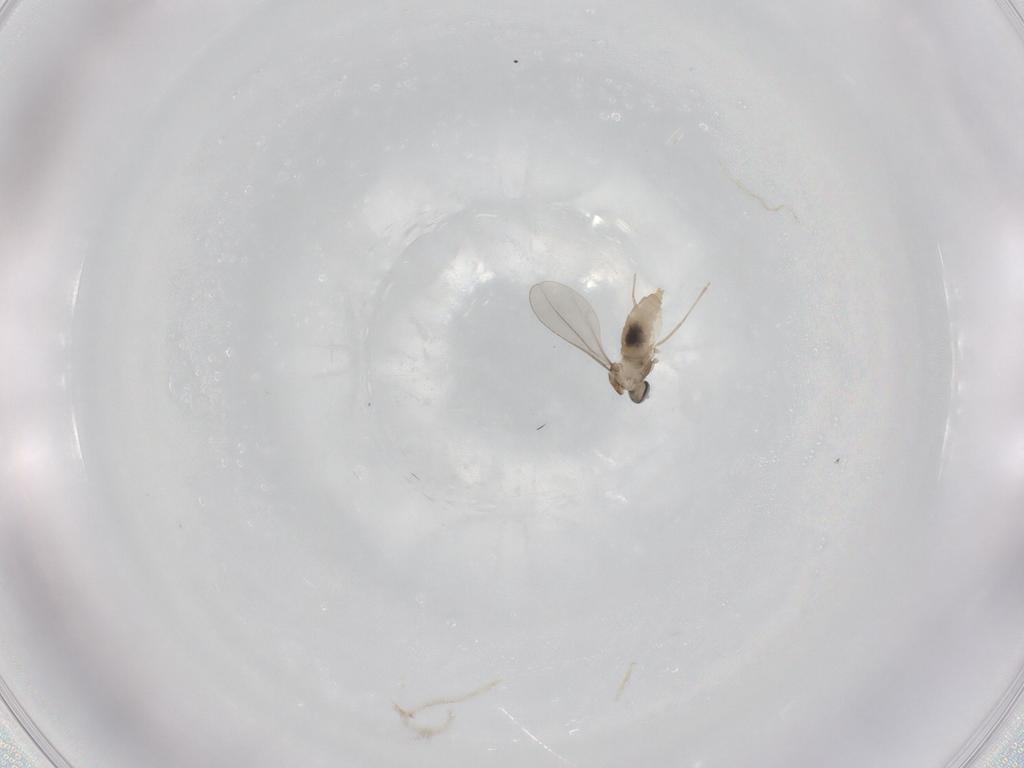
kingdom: Animalia
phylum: Arthropoda
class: Insecta
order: Diptera
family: Cecidomyiidae
